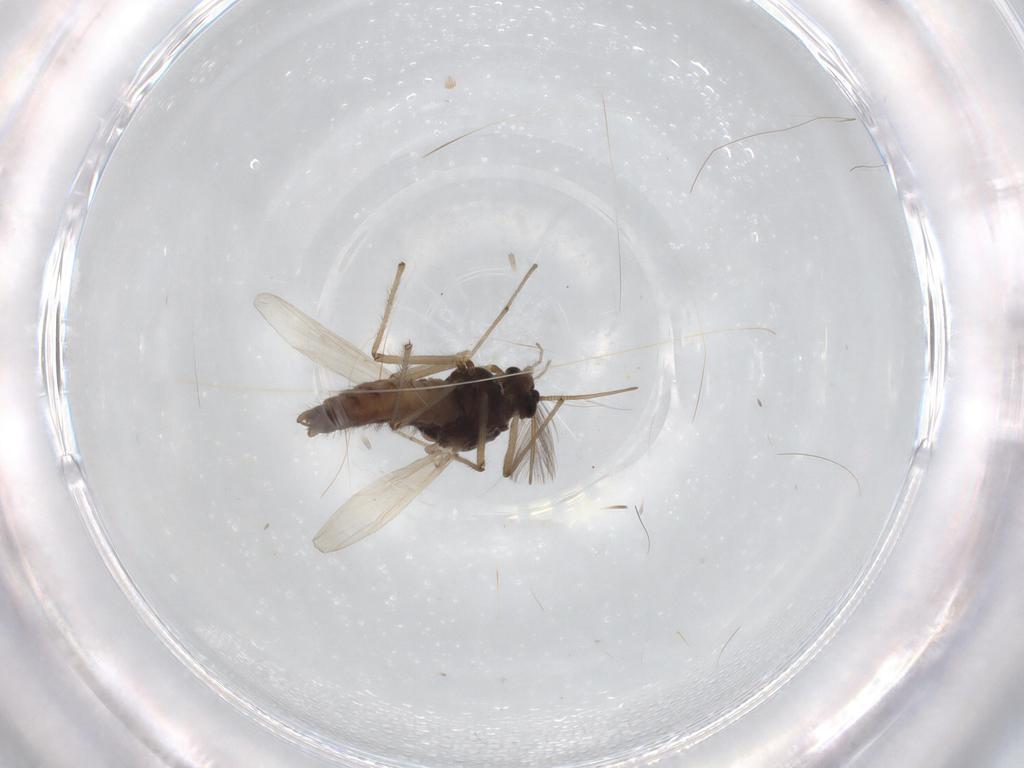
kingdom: Animalia
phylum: Arthropoda
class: Insecta
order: Diptera
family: Chironomidae
